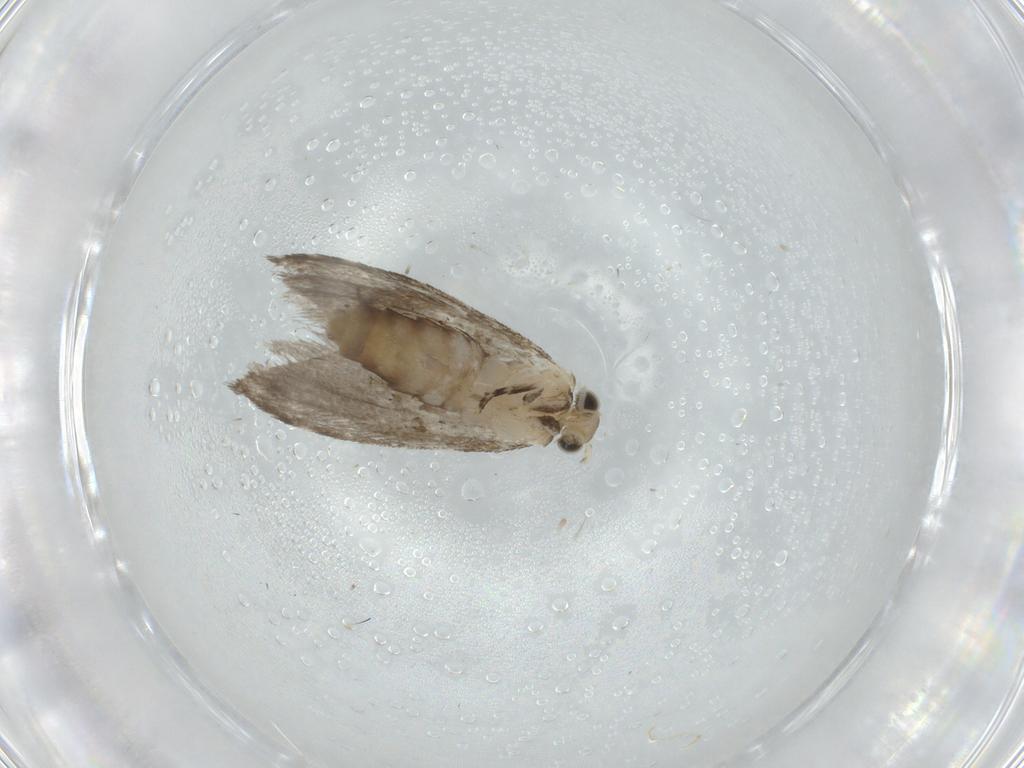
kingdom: Animalia
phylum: Arthropoda
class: Insecta
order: Lepidoptera
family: Tineidae
